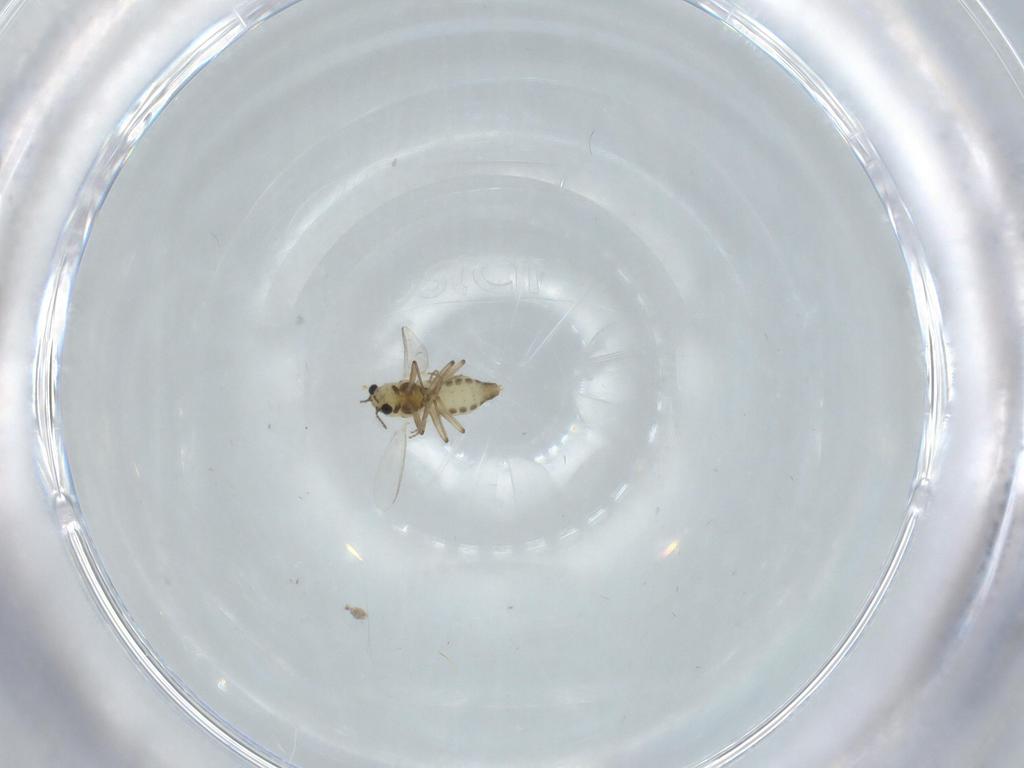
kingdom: Animalia
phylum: Arthropoda
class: Insecta
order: Diptera
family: Chironomidae
